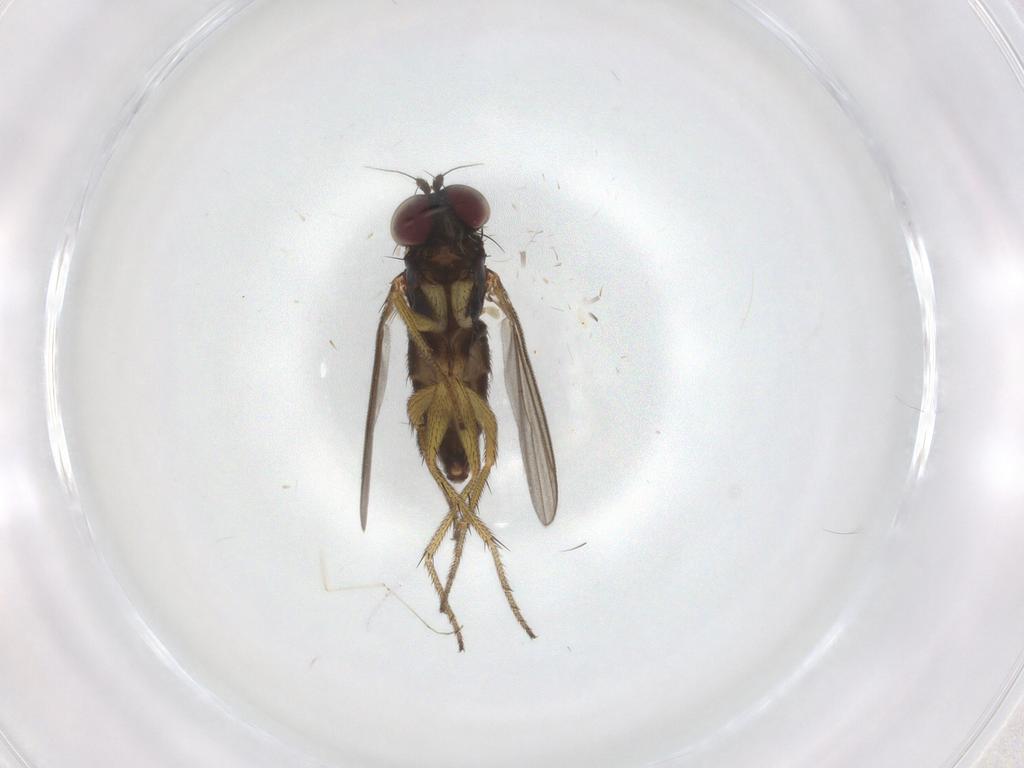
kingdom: Animalia
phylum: Arthropoda
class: Insecta
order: Diptera
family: Dolichopodidae
